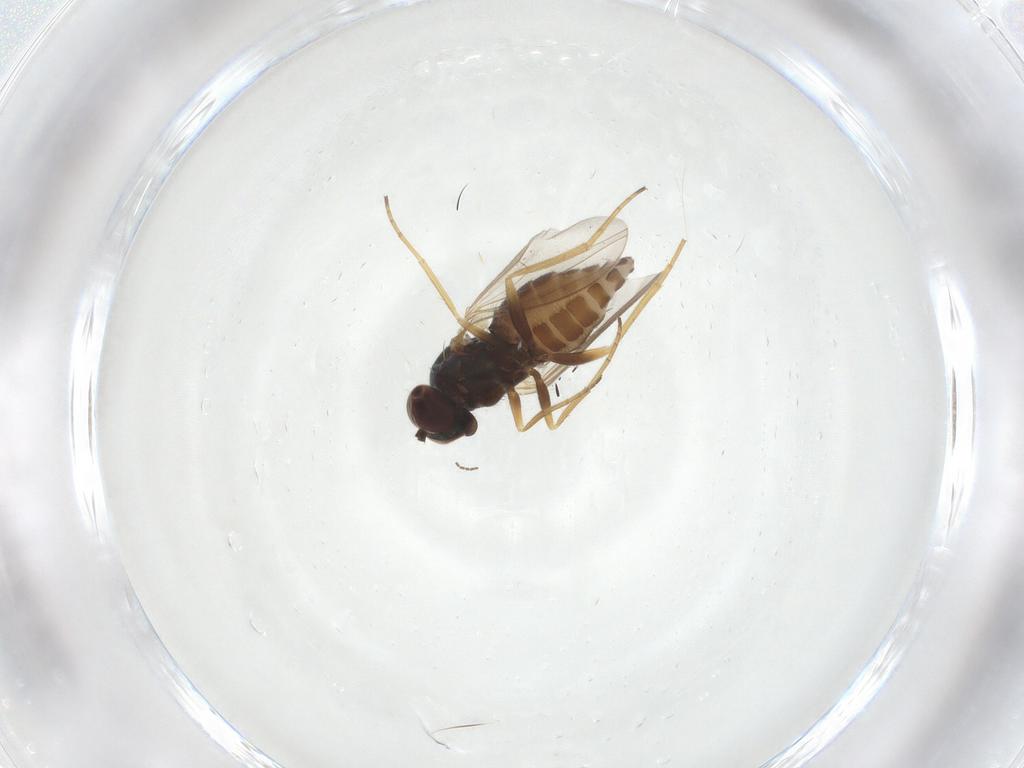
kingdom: Animalia
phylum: Arthropoda
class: Insecta
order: Diptera
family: Dolichopodidae
